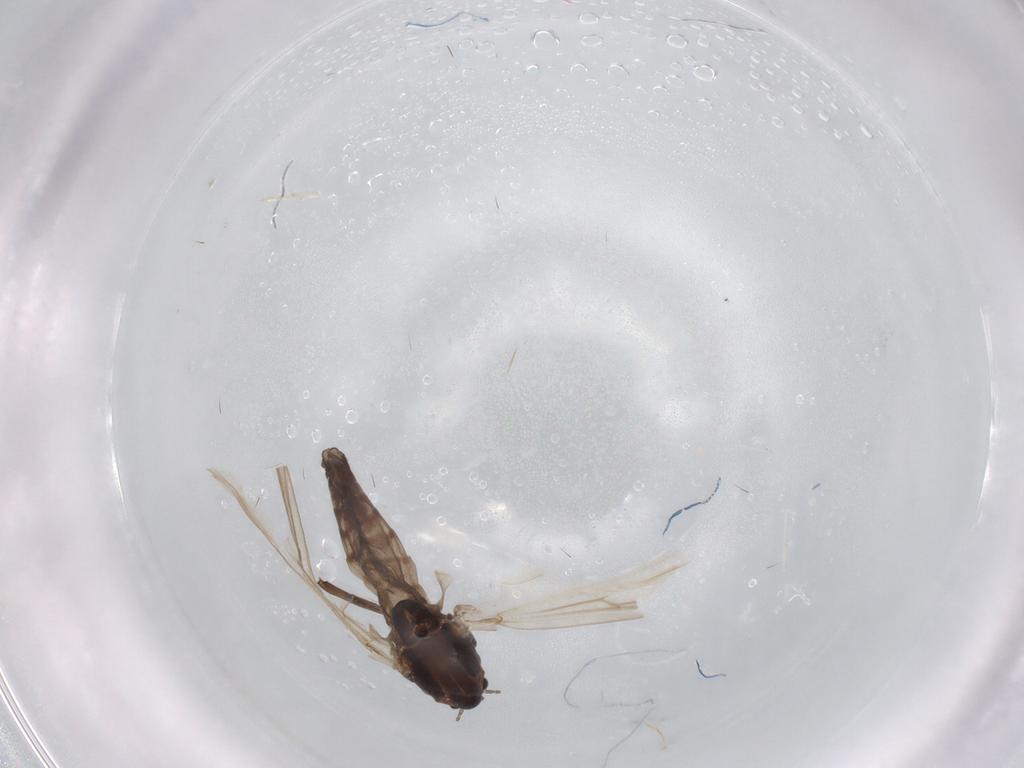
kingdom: Animalia
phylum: Arthropoda
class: Insecta
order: Diptera
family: Chironomidae
